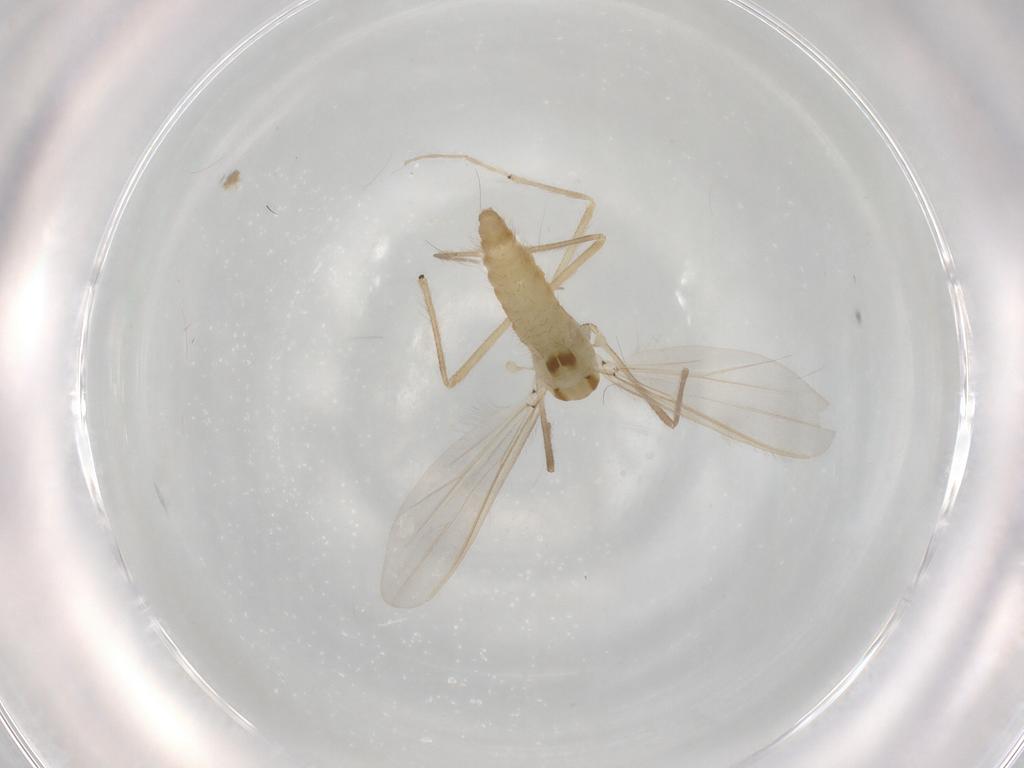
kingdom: Animalia
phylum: Arthropoda
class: Insecta
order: Diptera
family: Chironomidae
